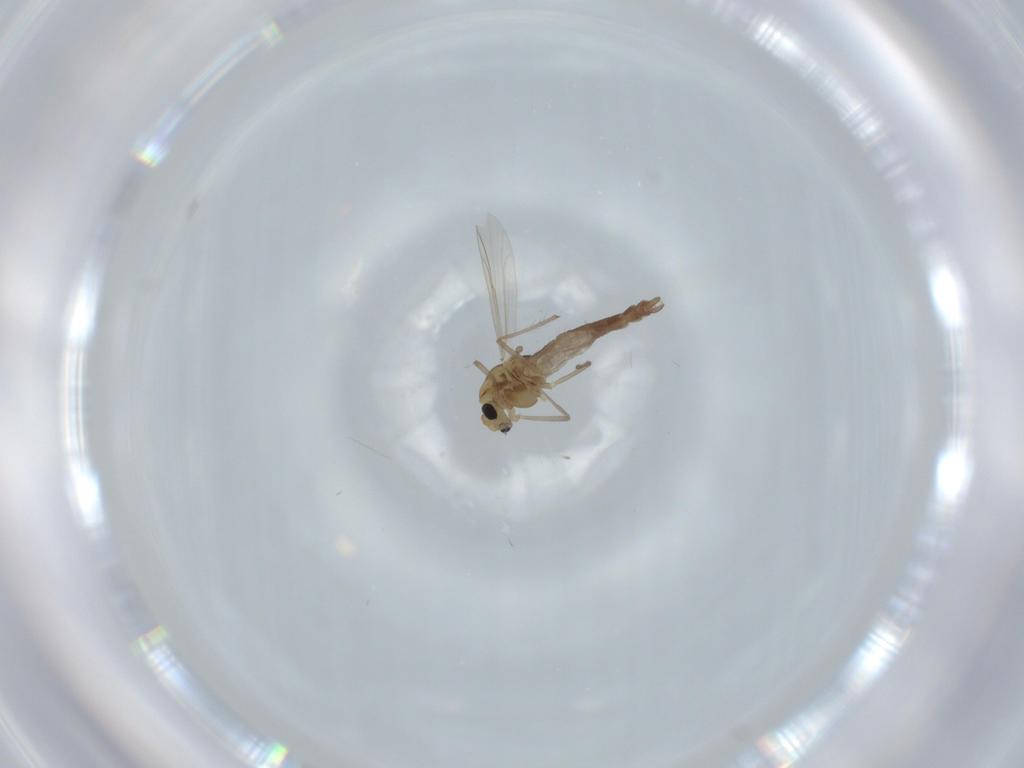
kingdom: Animalia
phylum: Arthropoda
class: Insecta
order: Diptera
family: Chironomidae
